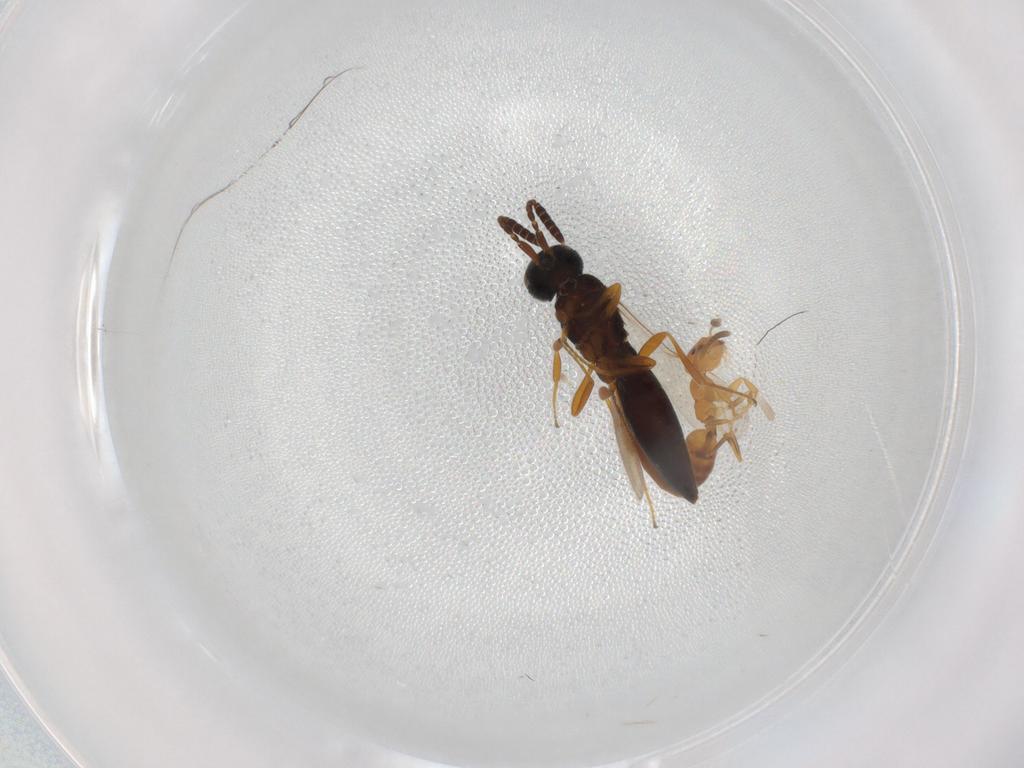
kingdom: Animalia
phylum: Arthropoda
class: Insecta
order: Hymenoptera
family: Scelionidae
